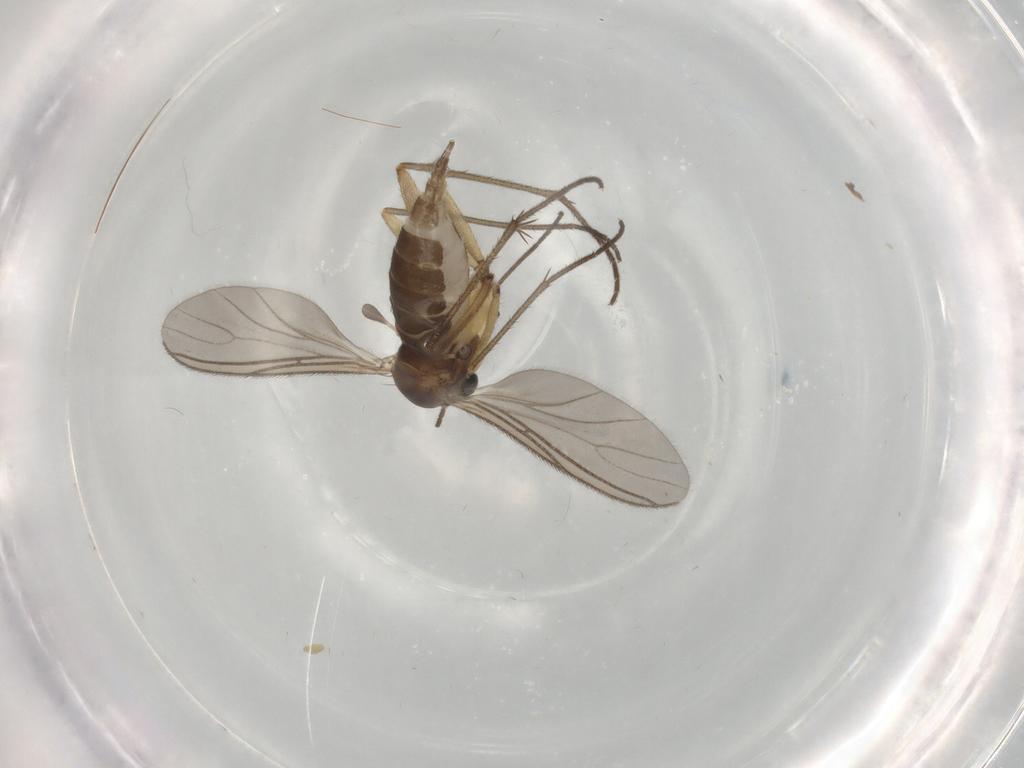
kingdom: Animalia
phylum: Arthropoda
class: Insecta
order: Diptera
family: Sciaridae
